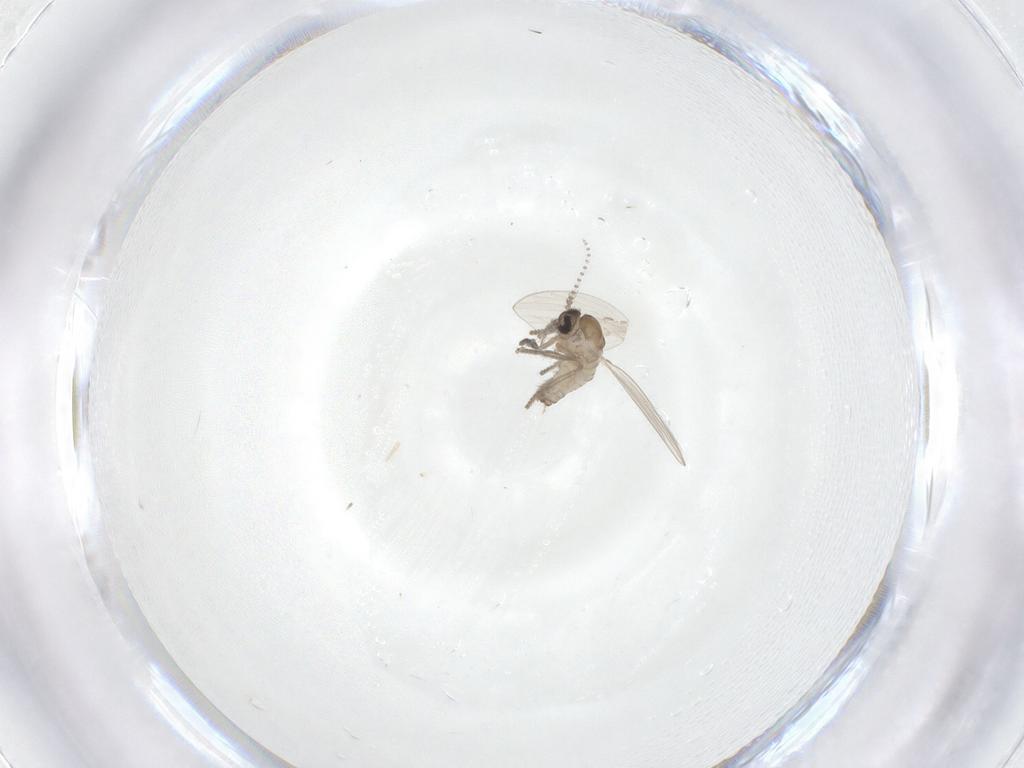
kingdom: Animalia
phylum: Arthropoda
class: Insecta
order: Diptera
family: Psychodidae
